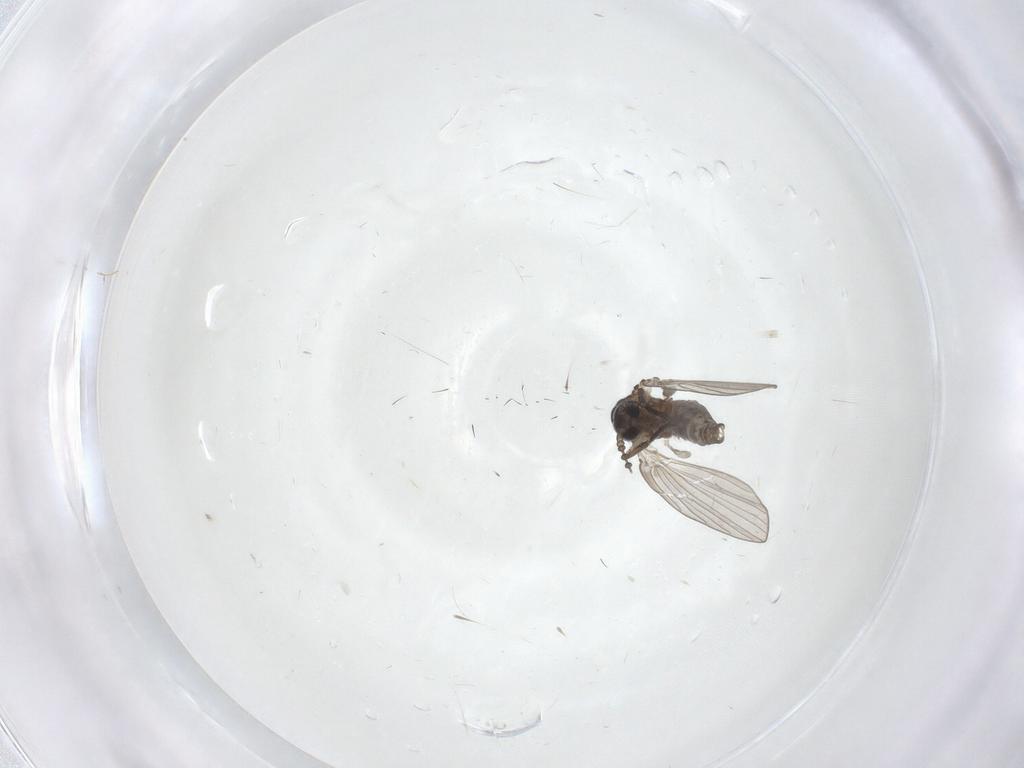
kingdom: Animalia
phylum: Arthropoda
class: Insecta
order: Diptera
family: Psychodidae
